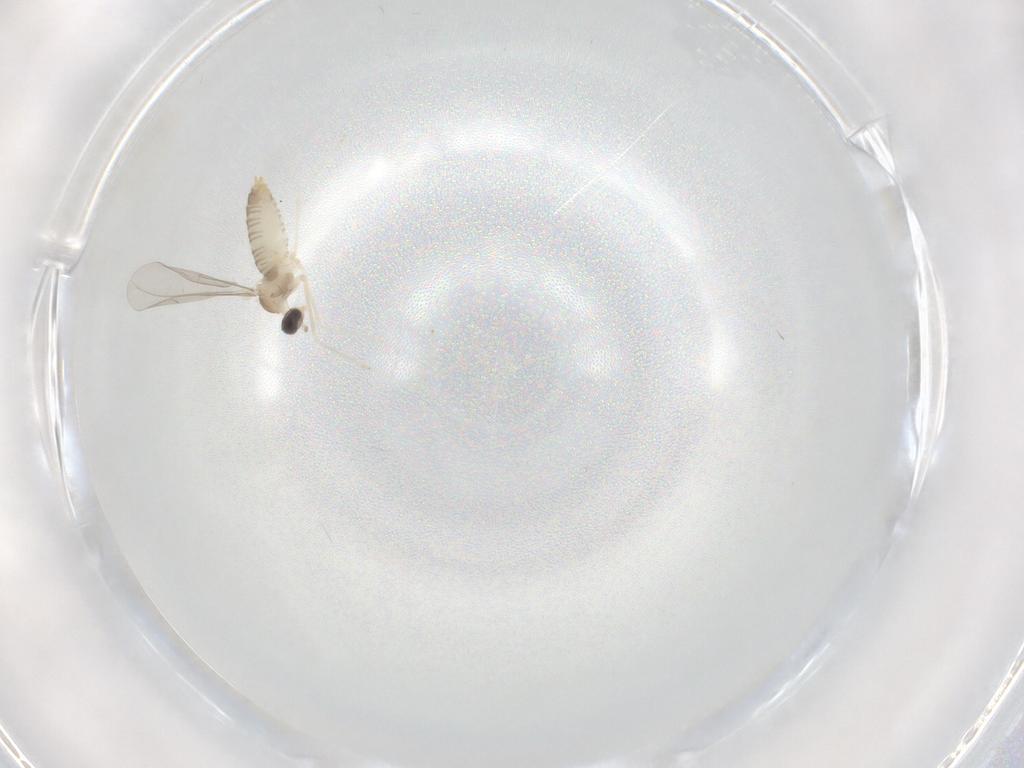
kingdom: Animalia
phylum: Arthropoda
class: Insecta
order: Diptera
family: Cecidomyiidae
